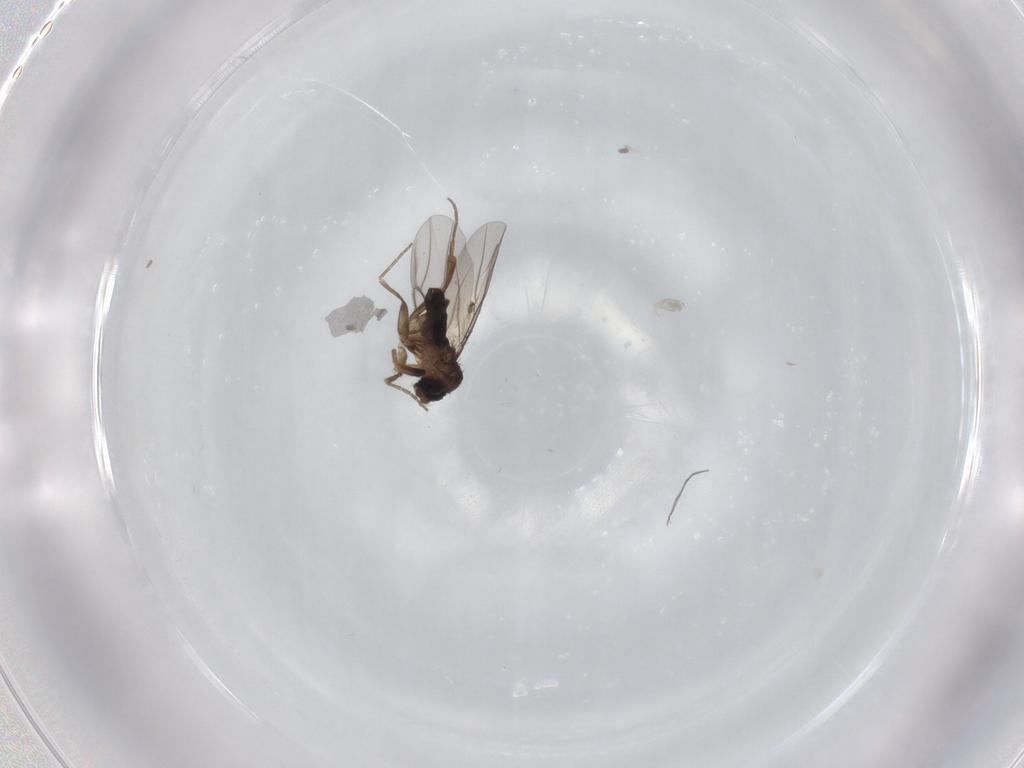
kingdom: Animalia
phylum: Arthropoda
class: Insecta
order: Diptera
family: Phoridae
